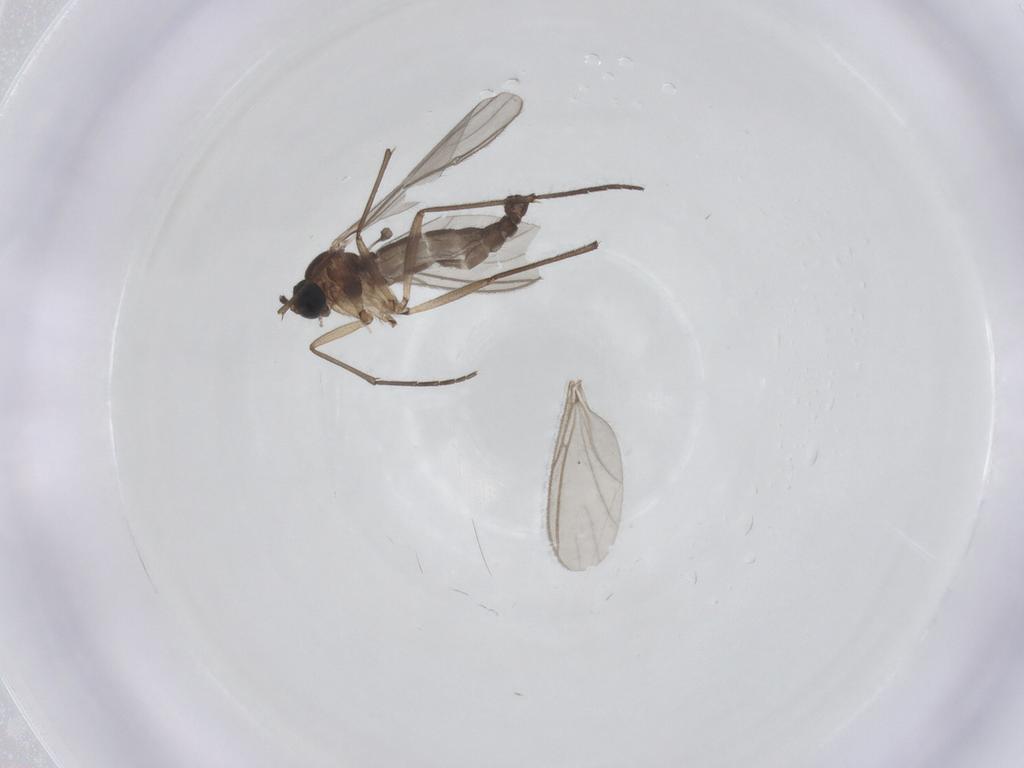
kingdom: Animalia
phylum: Arthropoda
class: Insecta
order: Diptera
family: Sciaridae
